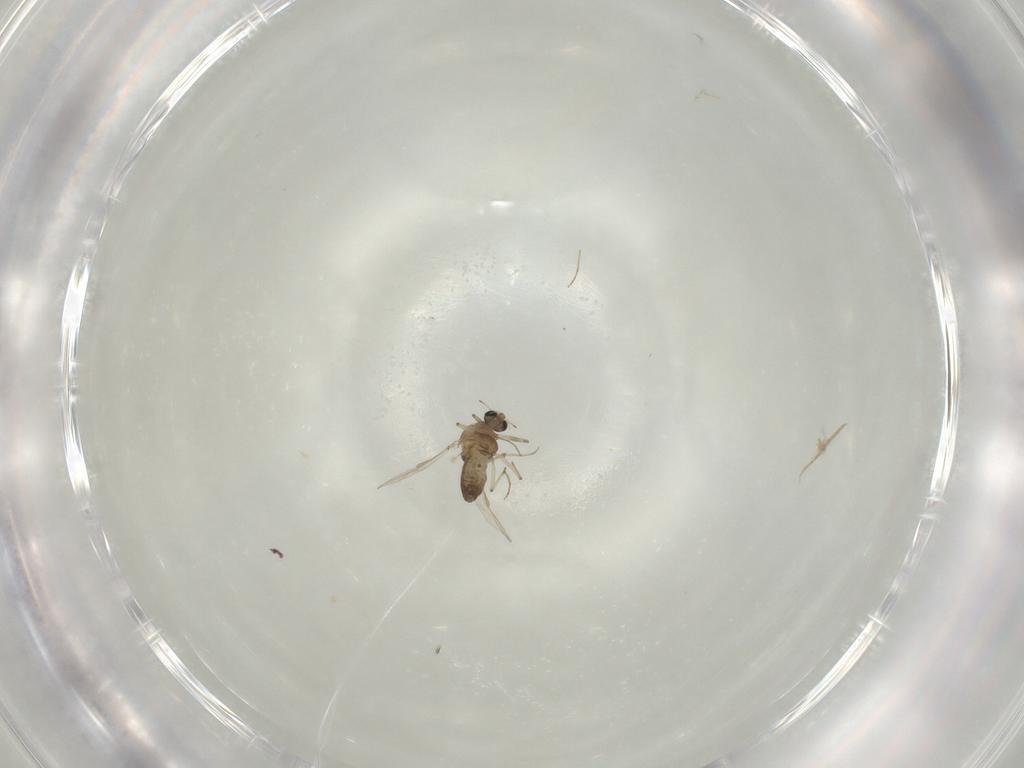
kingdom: Animalia
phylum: Arthropoda
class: Insecta
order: Diptera
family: Chironomidae
